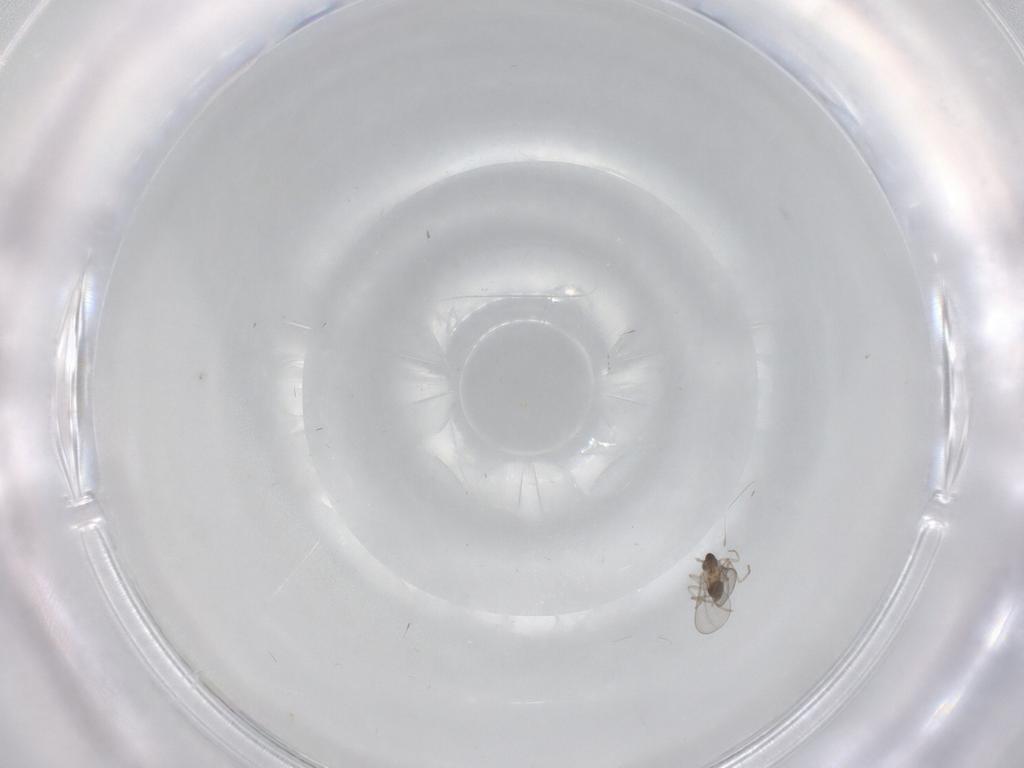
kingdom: Animalia
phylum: Arthropoda
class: Insecta
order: Diptera
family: Cecidomyiidae
